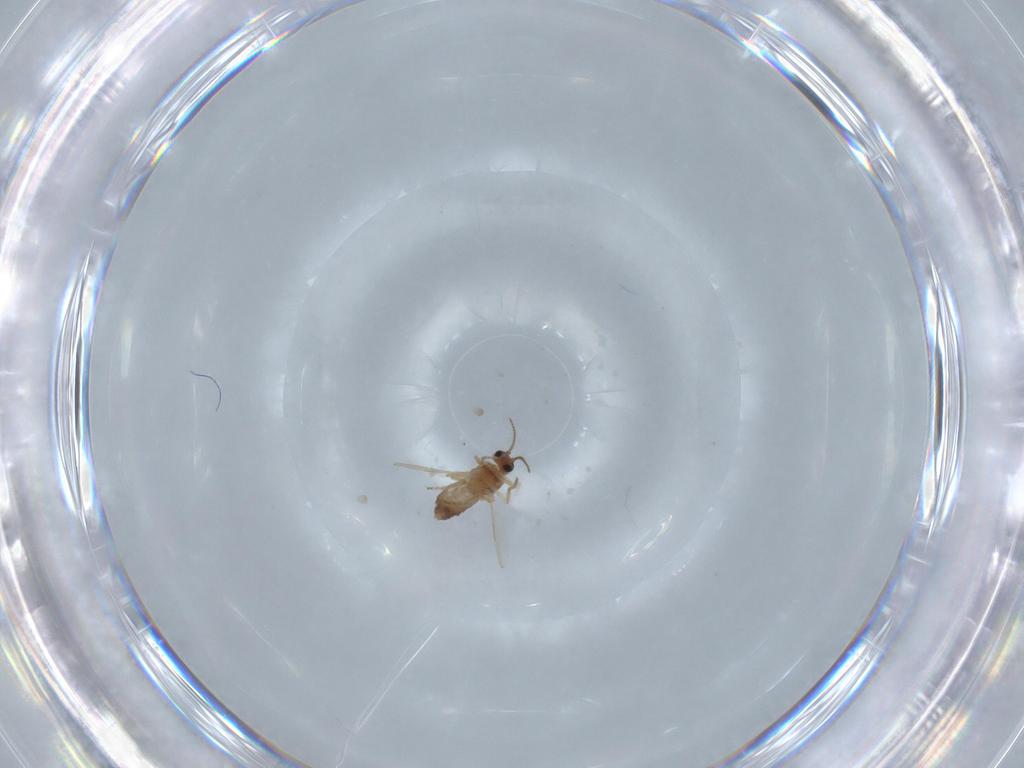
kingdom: Animalia
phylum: Arthropoda
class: Insecta
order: Diptera
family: Ceratopogonidae
